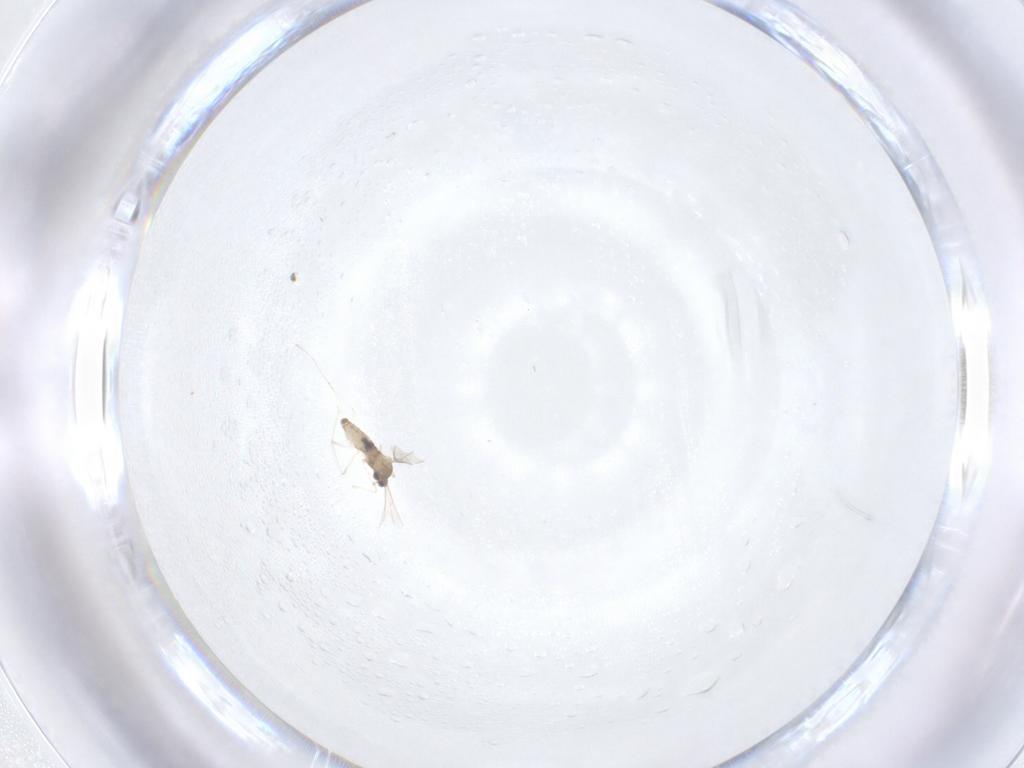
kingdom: Animalia
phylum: Arthropoda
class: Insecta
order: Diptera
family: Cecidomyiidae
